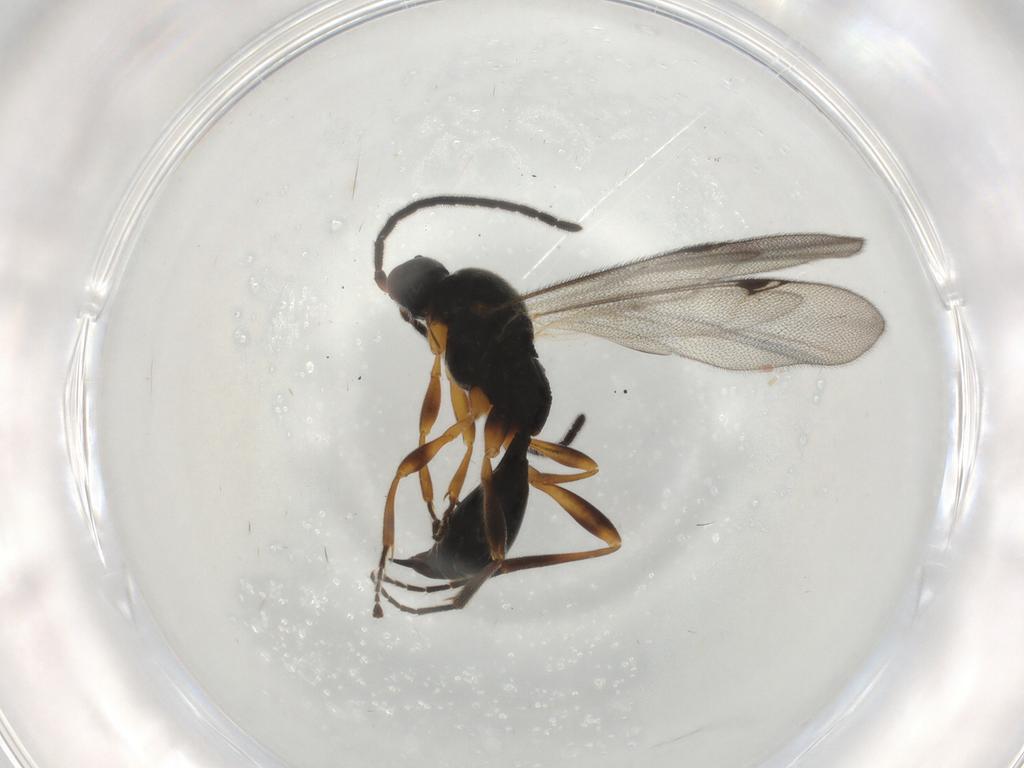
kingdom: Animalia
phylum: Arthropoda
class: Insecta
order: Hymenoptera
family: Proctotrupidae
